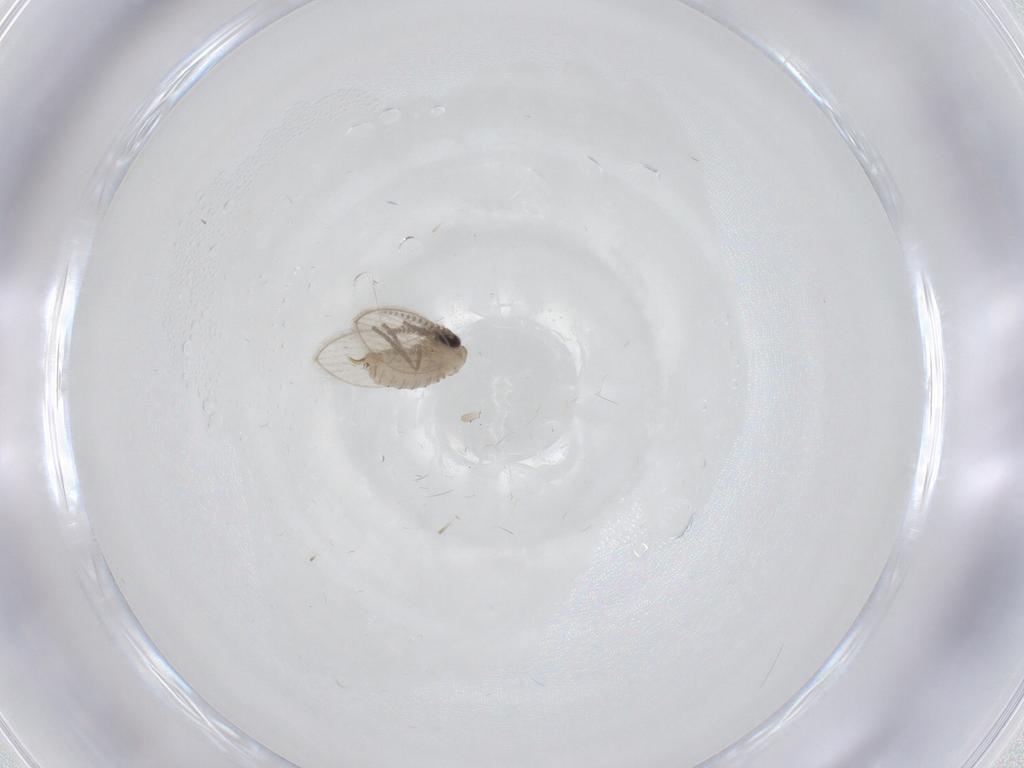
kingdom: Animalia
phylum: Arthropoda
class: Insecta
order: Diptera
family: Psychodidae
